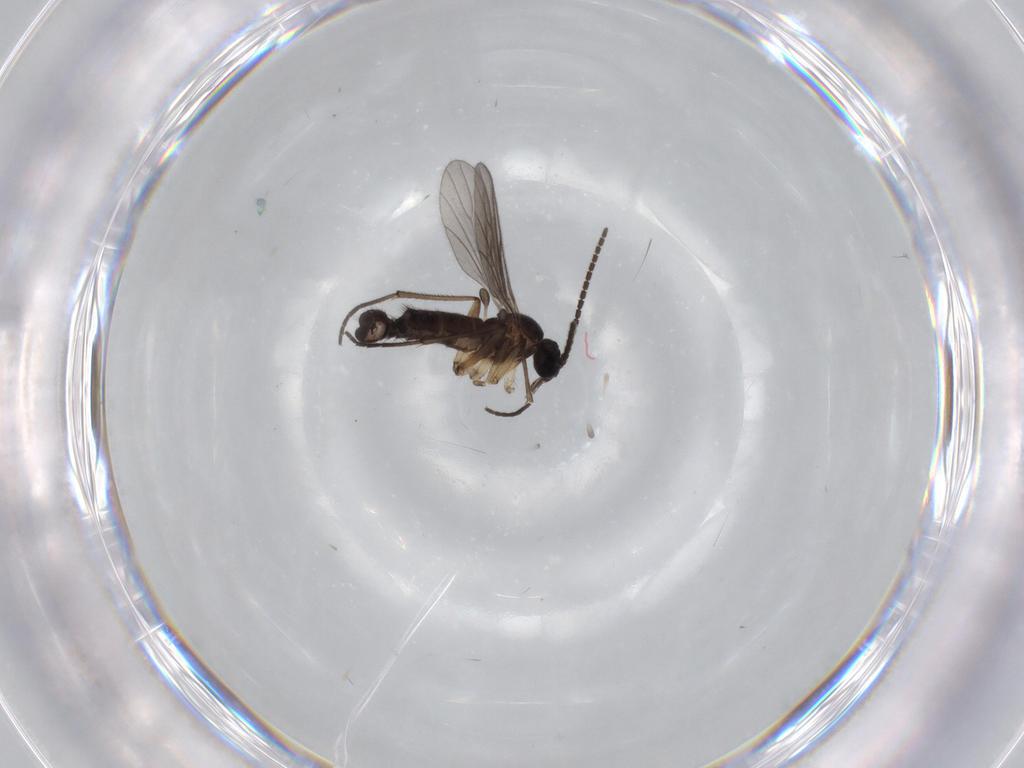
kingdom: Animalia
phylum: Arthropoda
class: Insecta
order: Diptera
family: Sciaridae
